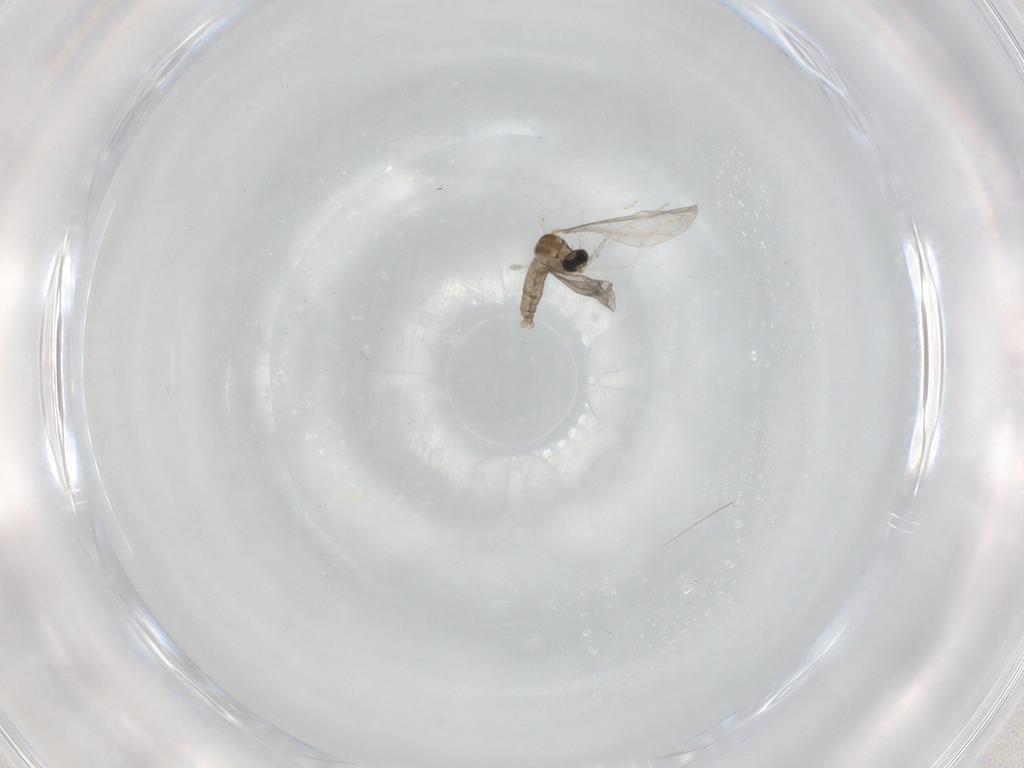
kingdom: Animalia
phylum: Arthropoda
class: Insecta
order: Diptera
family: Cecidomyiidae
